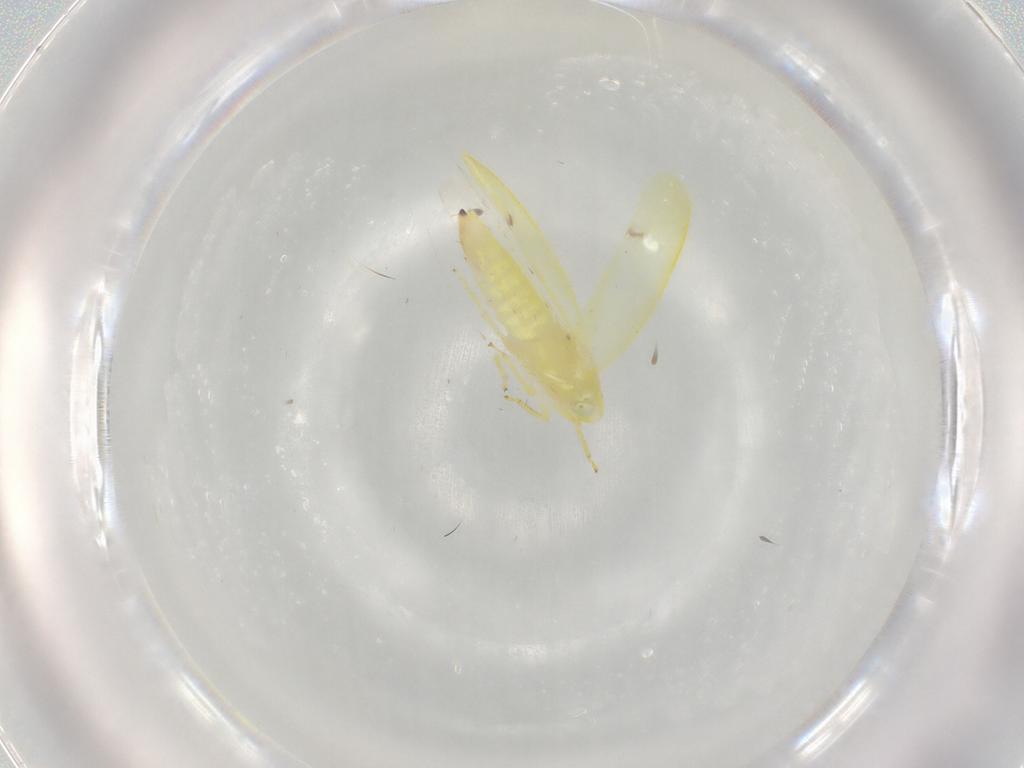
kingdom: Animalia
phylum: Arthropoda
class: Insecta
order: Hemiptera
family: Cicadellidae
